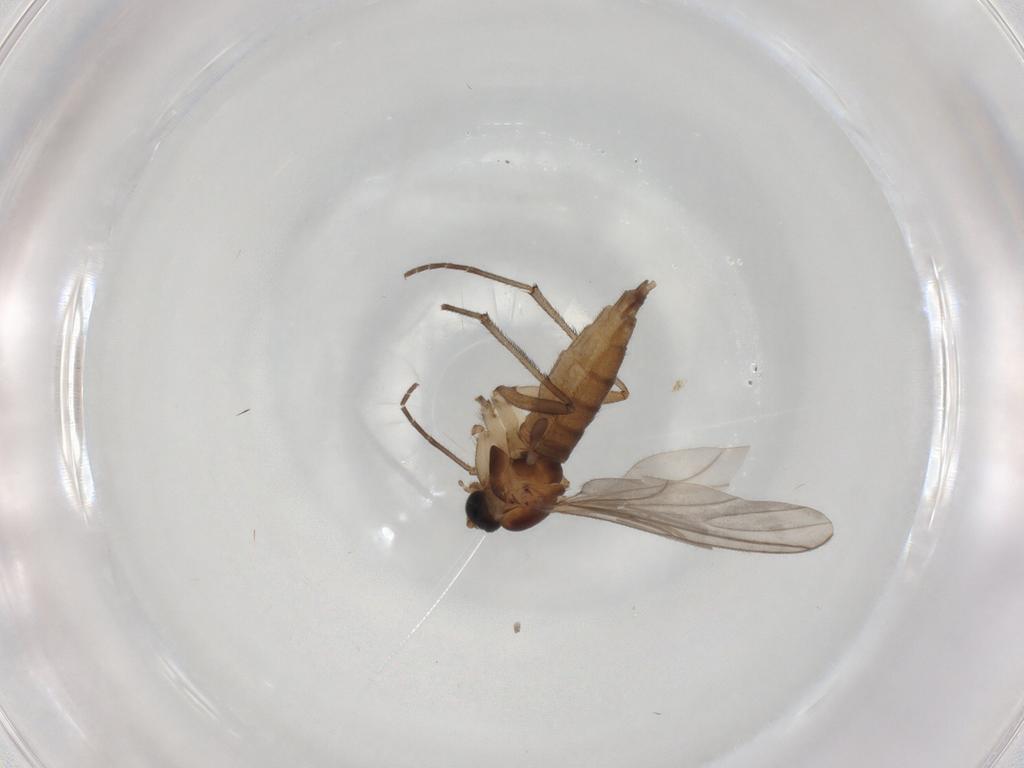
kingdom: Animalia
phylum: Arthropoda
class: Insecta
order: Diptera
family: Sciaridae
